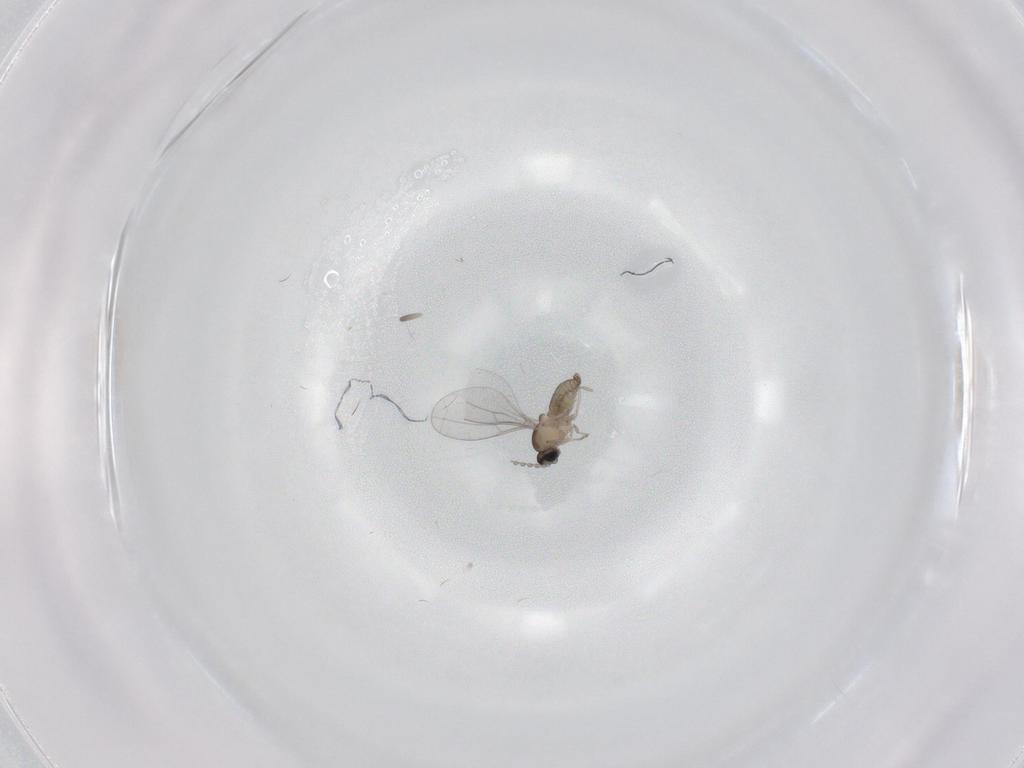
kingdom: Animalia
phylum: Arthropoda
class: Insecta
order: Diptera
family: Cecidomyiidae
